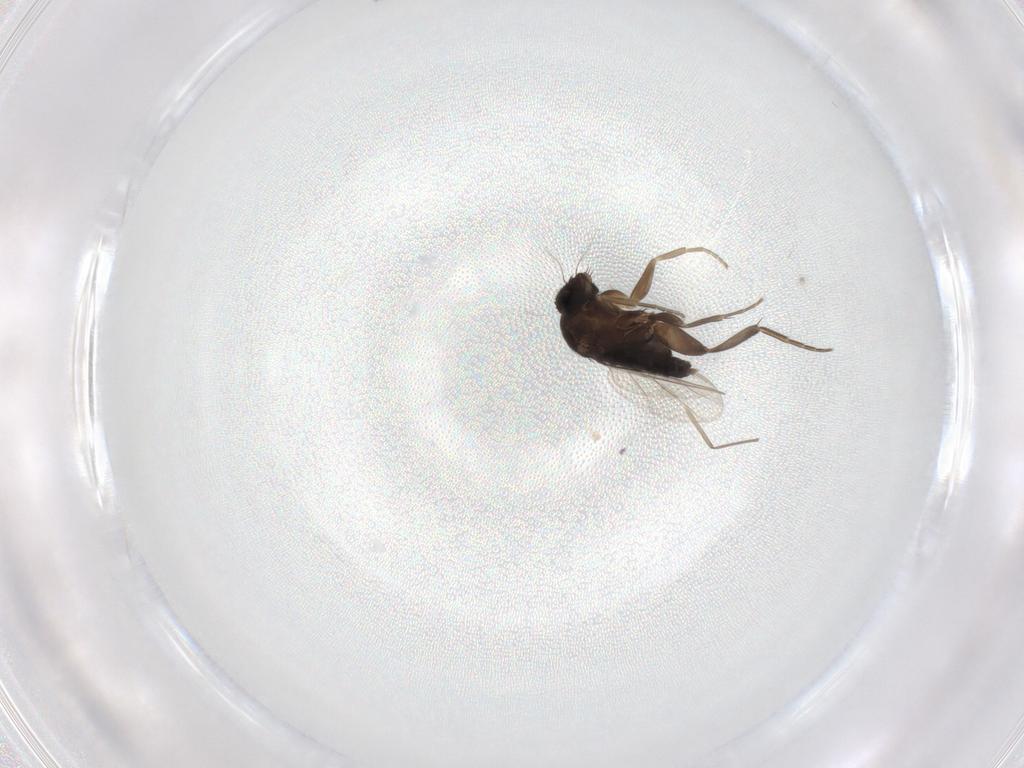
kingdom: Animalia
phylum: Arthropoda
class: Insecta
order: Diptera
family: Phoridae
